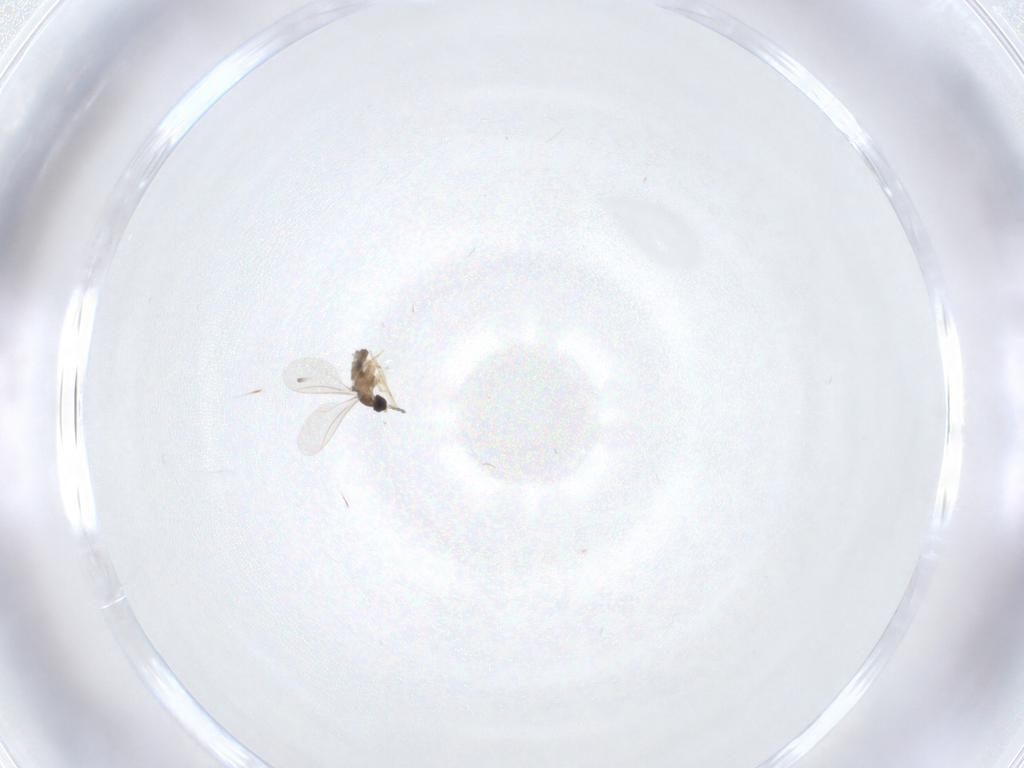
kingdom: Animalia
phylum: Arthropoda
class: Insecta
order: Diptera
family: Cecidomyiidae
